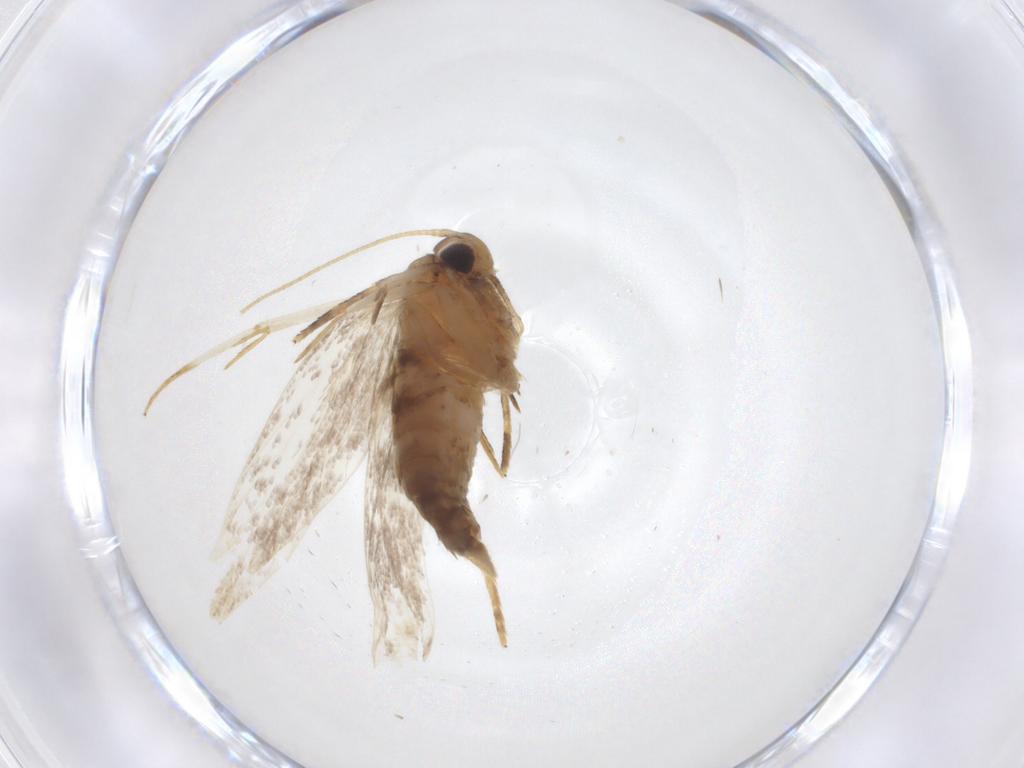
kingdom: Animalia
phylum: Arthropoda
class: Insecta
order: Lepidoptera
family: Oecophoridae
